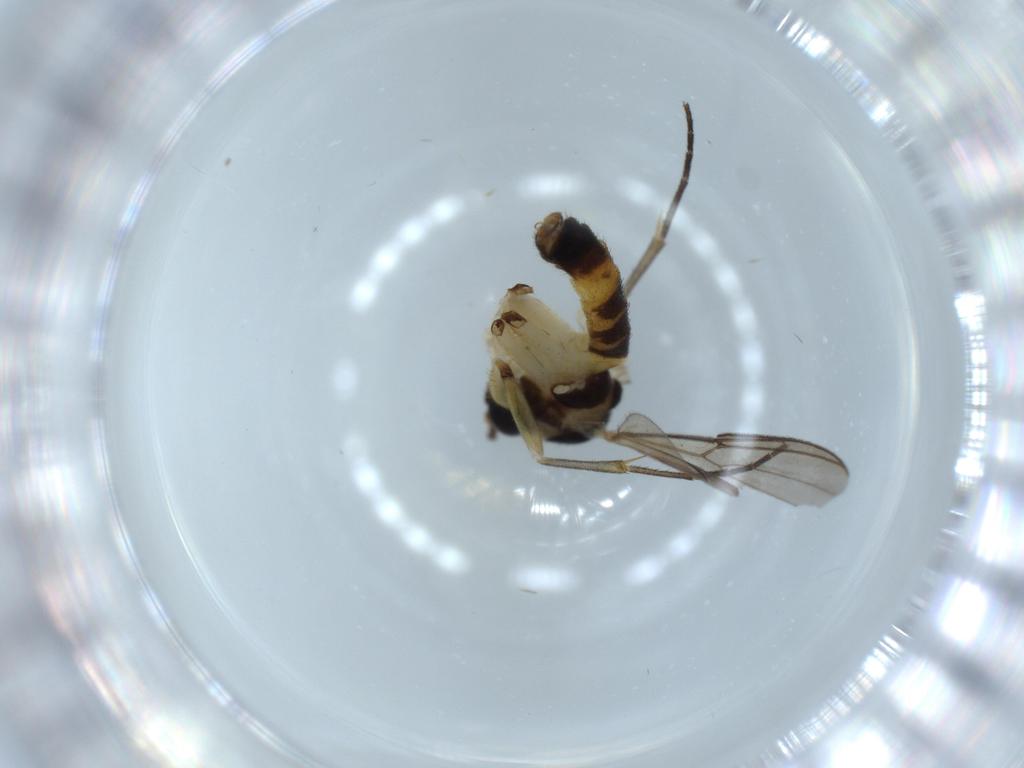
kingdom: Animalia
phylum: Arthropoda
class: Insecta
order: Diptera
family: Mycetophilidae
